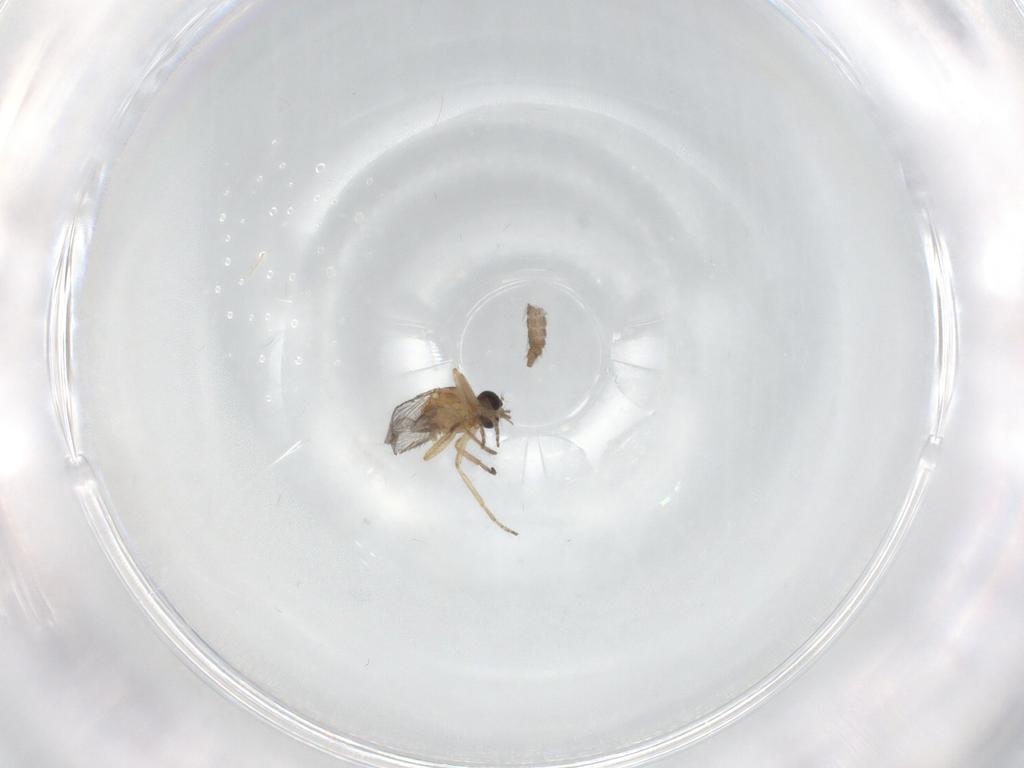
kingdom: Animalia
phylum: Arthropoda
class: Insecta
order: Diptera
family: Ceratopogonidae
